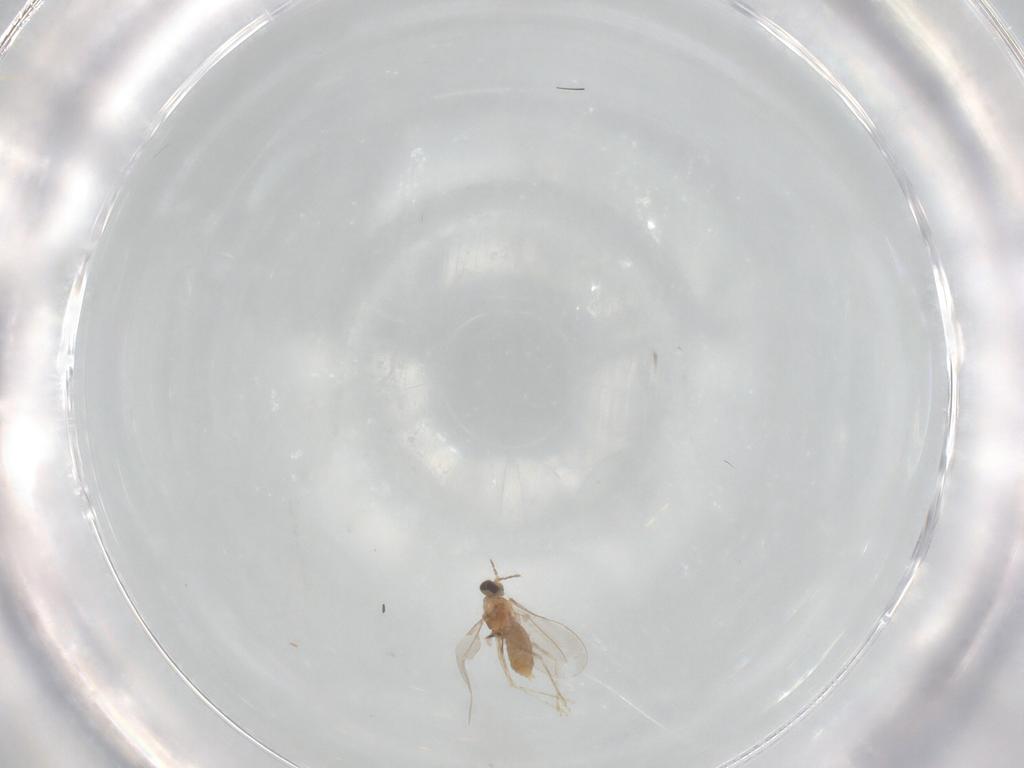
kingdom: Animalia
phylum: Arthropoda
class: Insecta
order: Diptera
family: Cecidomyiidae
